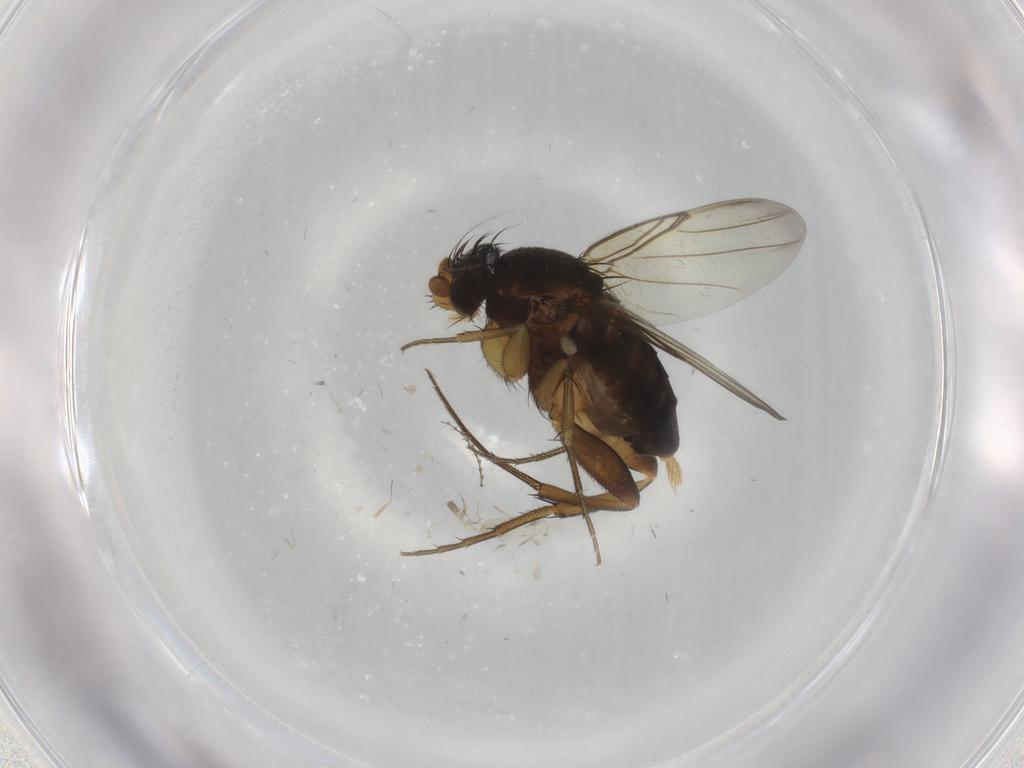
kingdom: Animalia
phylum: Arthropoda
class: Insecta
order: Diptera
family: Phoridae
